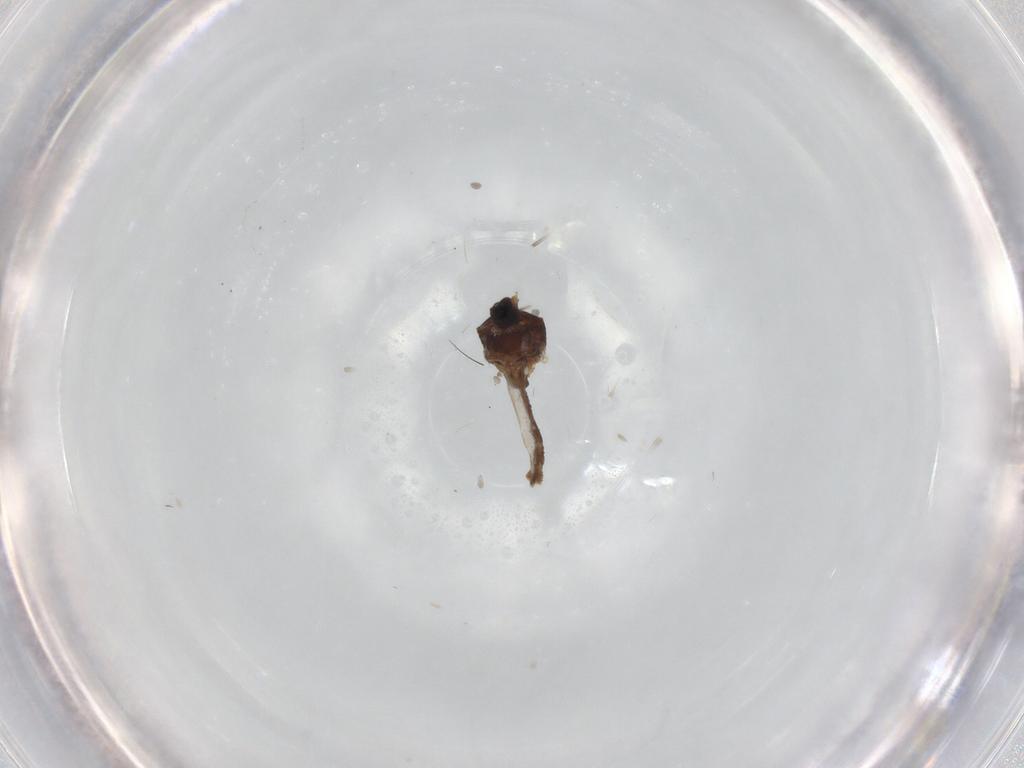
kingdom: Animalia
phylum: Arthropoda
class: Insecta
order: Diptera
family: Ceratopogonidae
